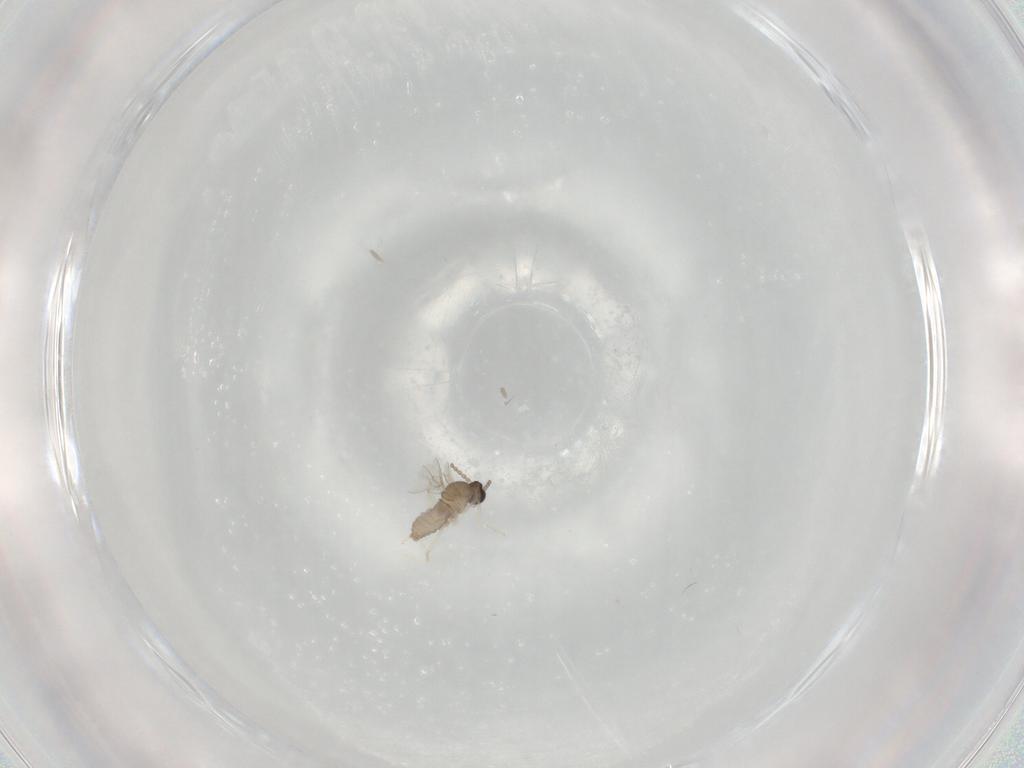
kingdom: Animalia
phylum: Arthropoda
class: Insecta
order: Diptera
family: Cecidomyiidae
